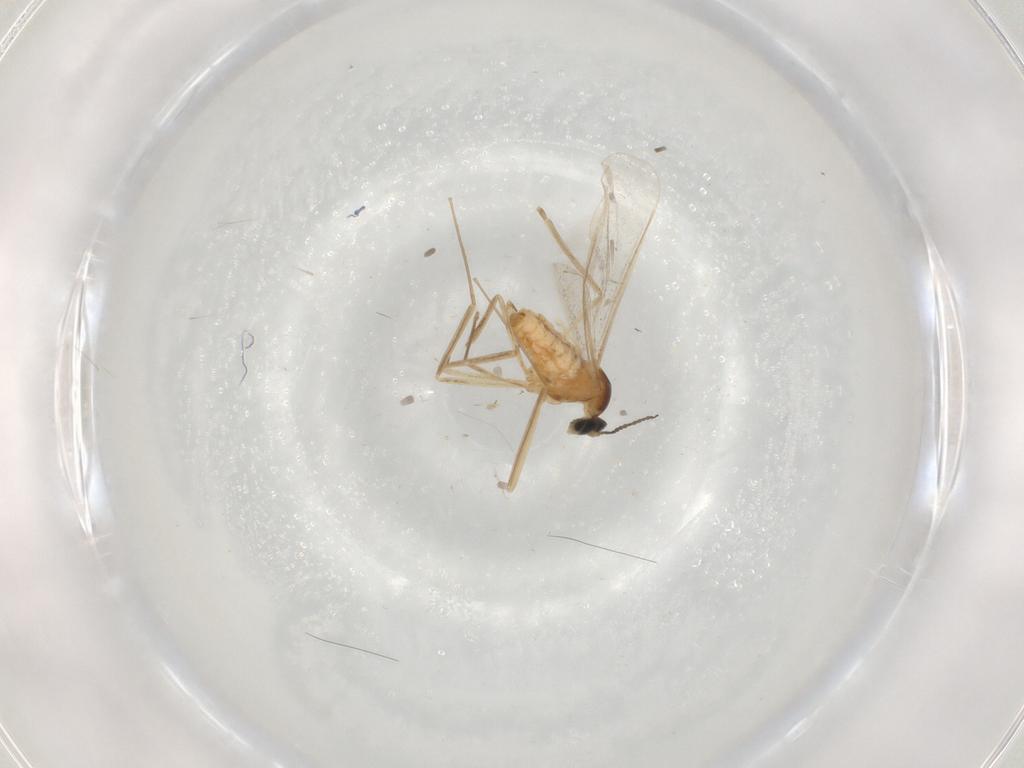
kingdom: Animalia
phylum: Arthropoda
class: Insecta
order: Diptera
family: Cecidomyiidae
